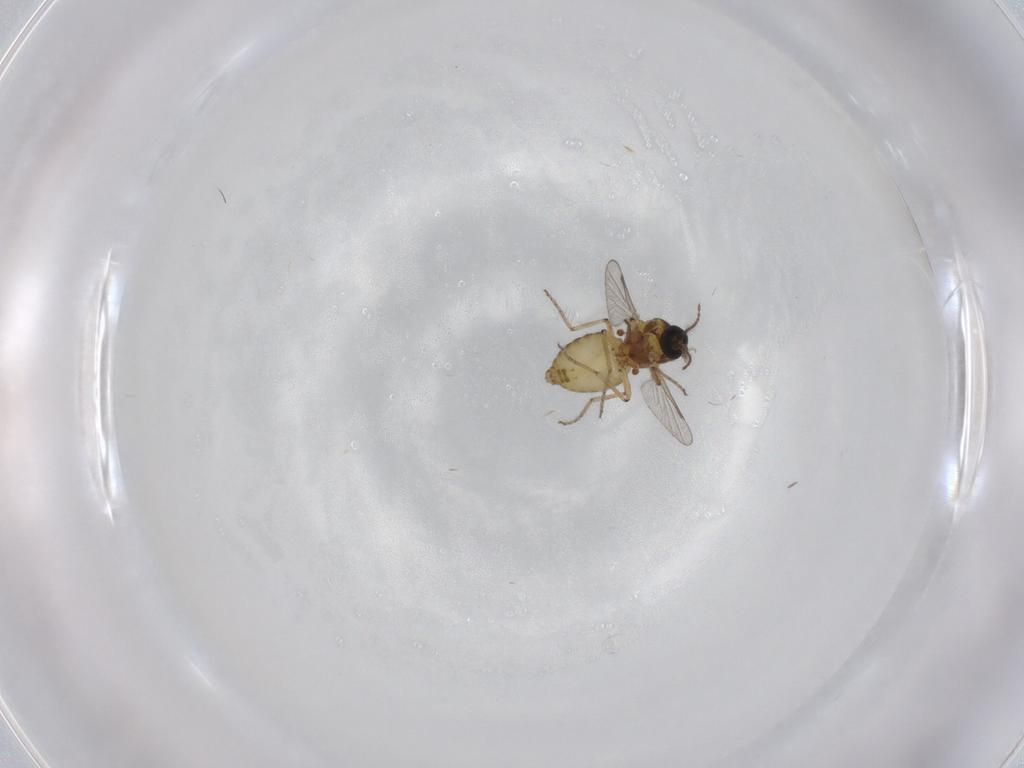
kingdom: Animalia
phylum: Arthropoda
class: Insecta
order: Diptera
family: Ceratopogonidae
